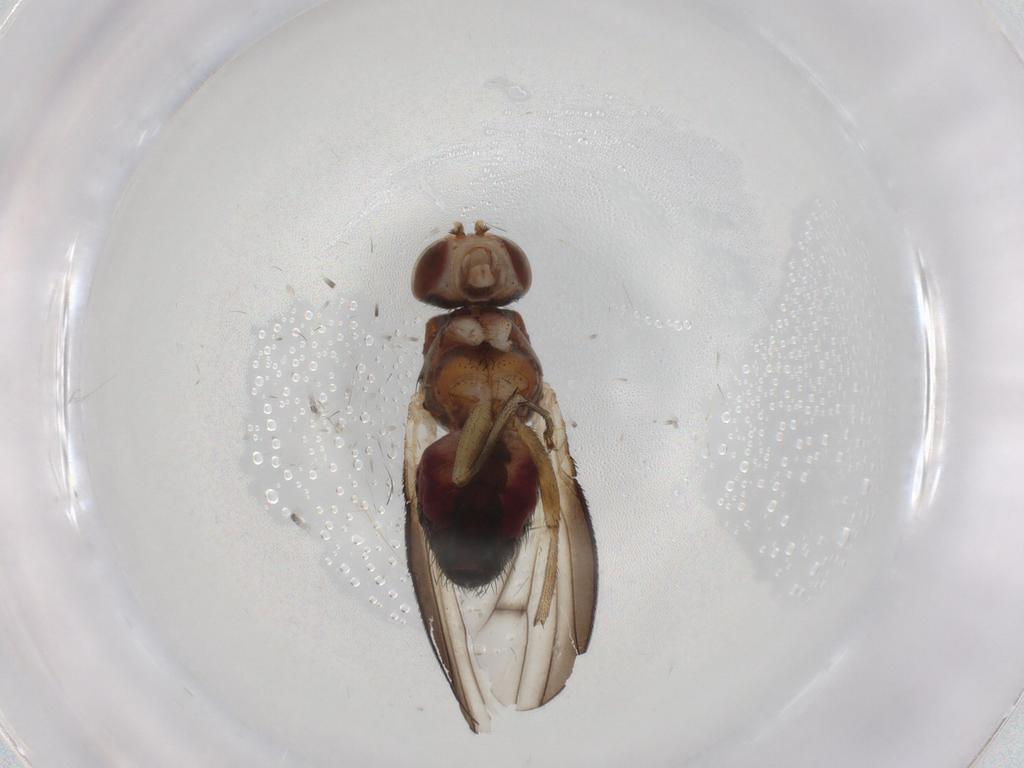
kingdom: Animalia
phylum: Arthropoda
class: Insecta
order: Diptera
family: Heleomyzidae
